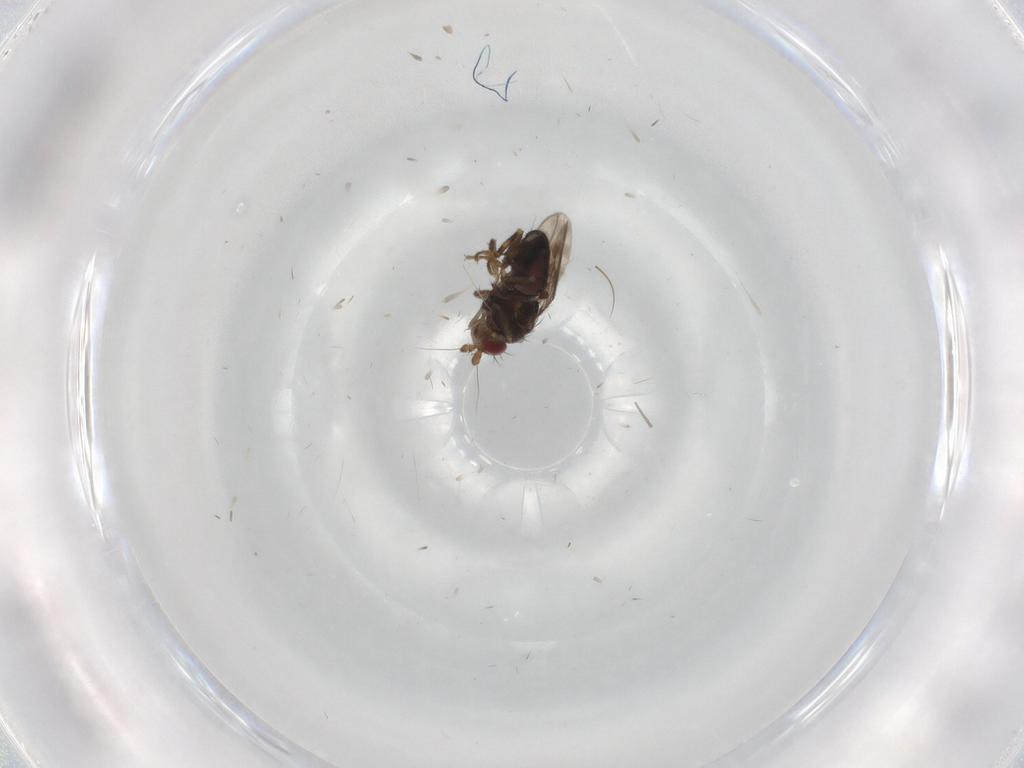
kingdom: Animalia
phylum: Arthropoda
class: Insecta
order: Diptera
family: Sphaeroceridae
